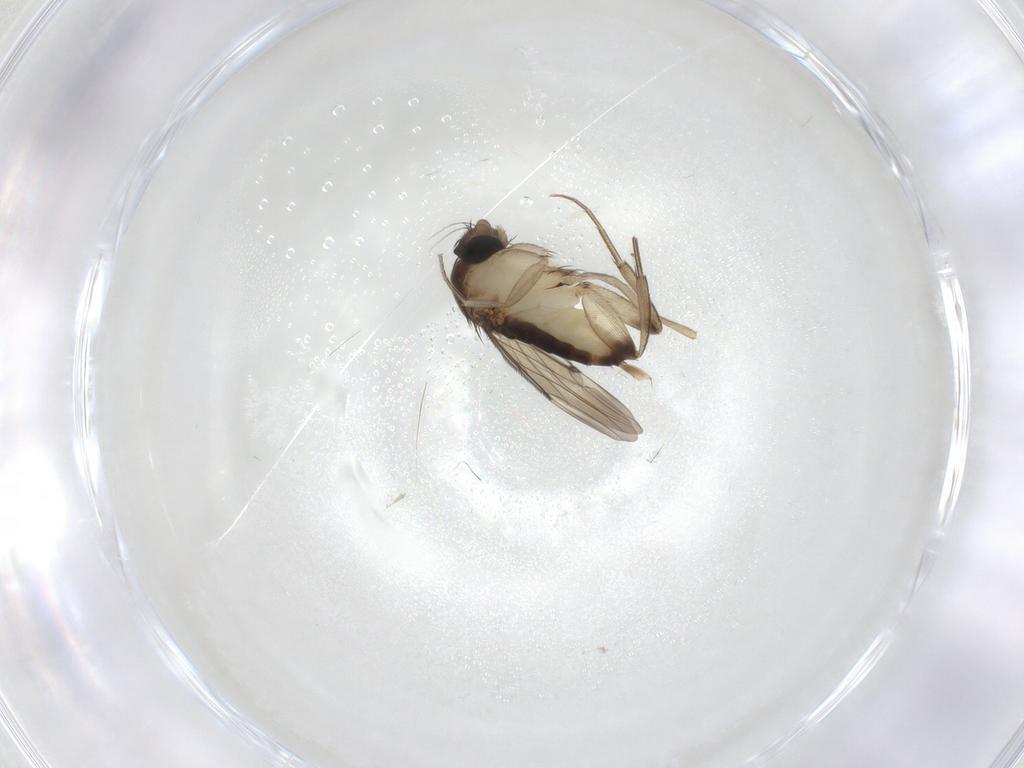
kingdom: Animalia
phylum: Arthropoda
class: Insecta
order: Diptera
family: Phoridae
